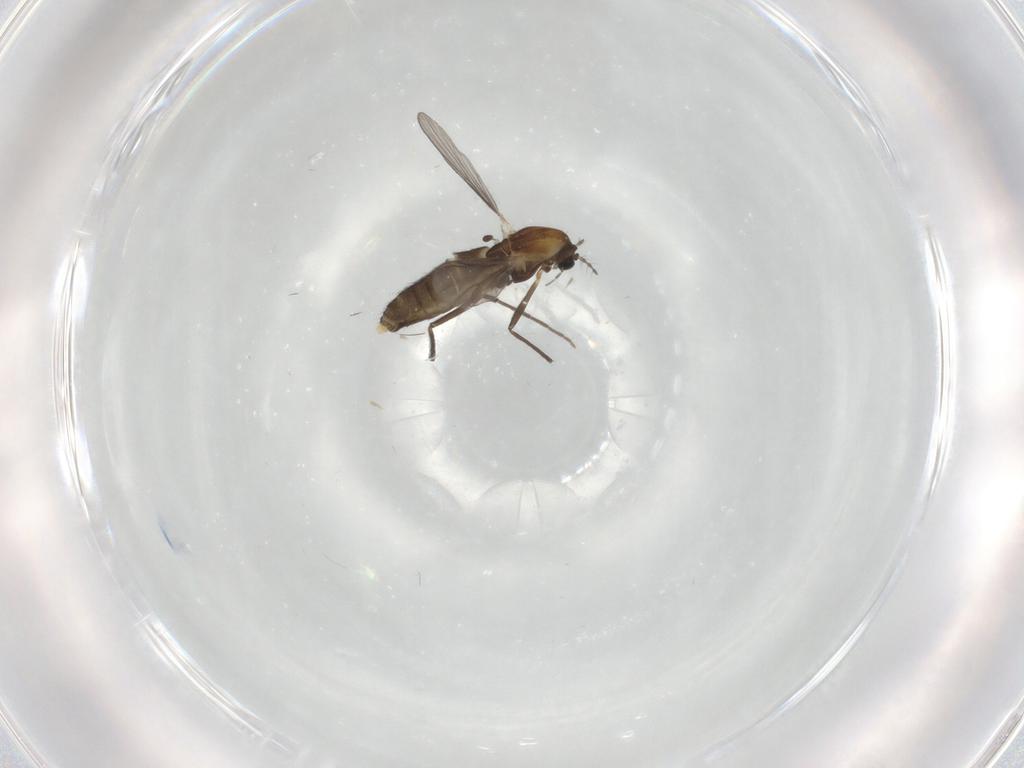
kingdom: Animalia
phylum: Arthropoda
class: Insecta
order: Diptera
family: Chironomidae
